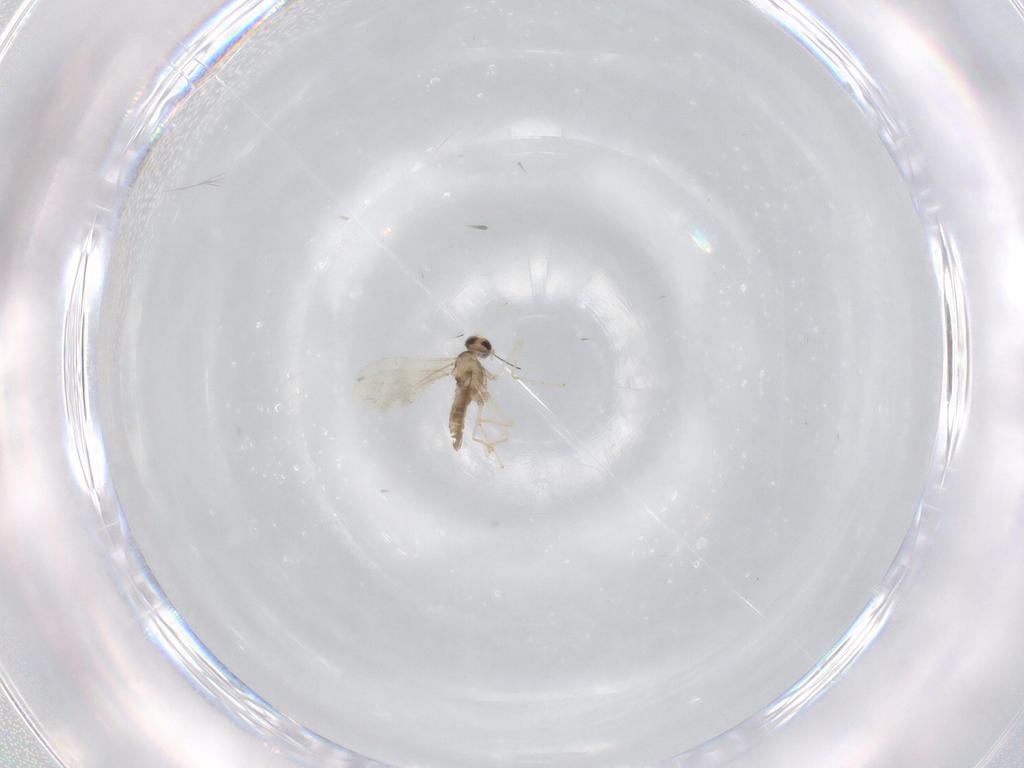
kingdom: Animalia
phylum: Arthropoda
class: Insecta
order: Diptera
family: Cecidomyiidae
